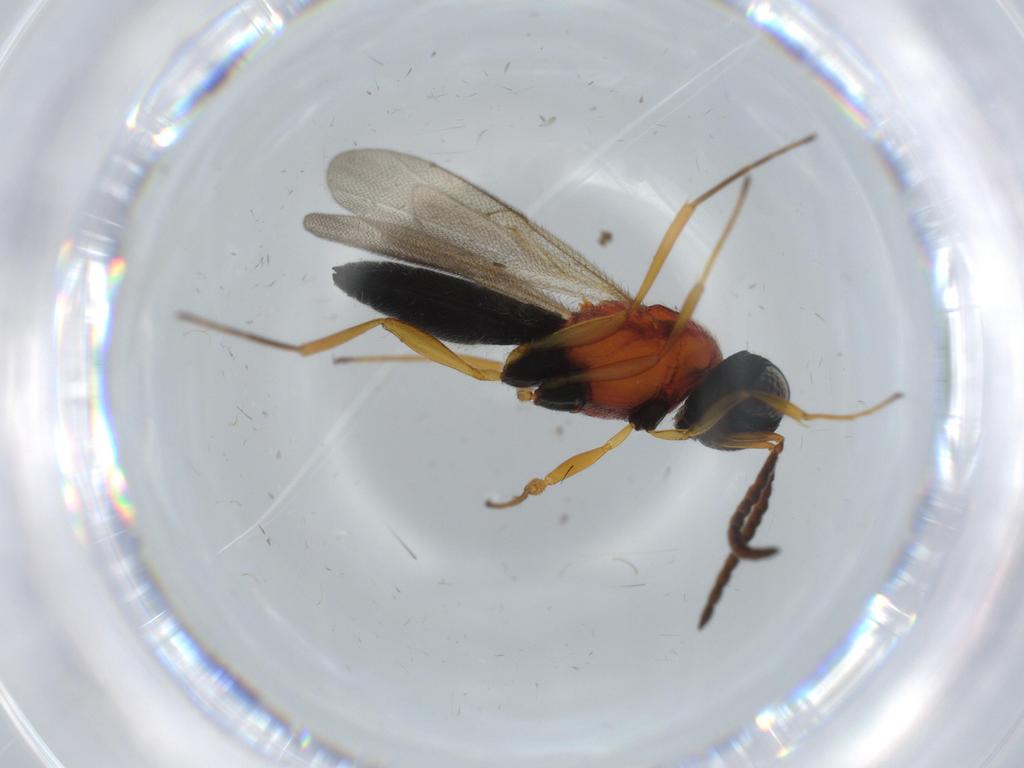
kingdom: Animalia
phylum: Arthropoda
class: Insecta
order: Hymenoptera
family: Scelionidae
